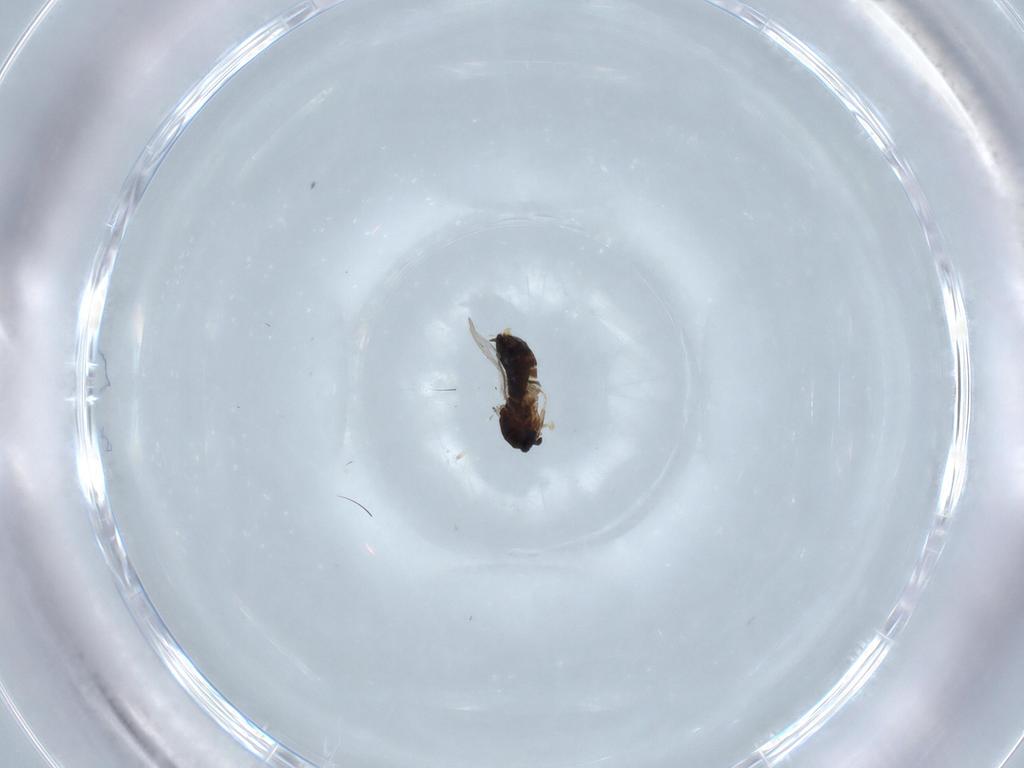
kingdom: Animalia
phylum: Arthropoda
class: Insecta
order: Diptera
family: Scatopsidae
